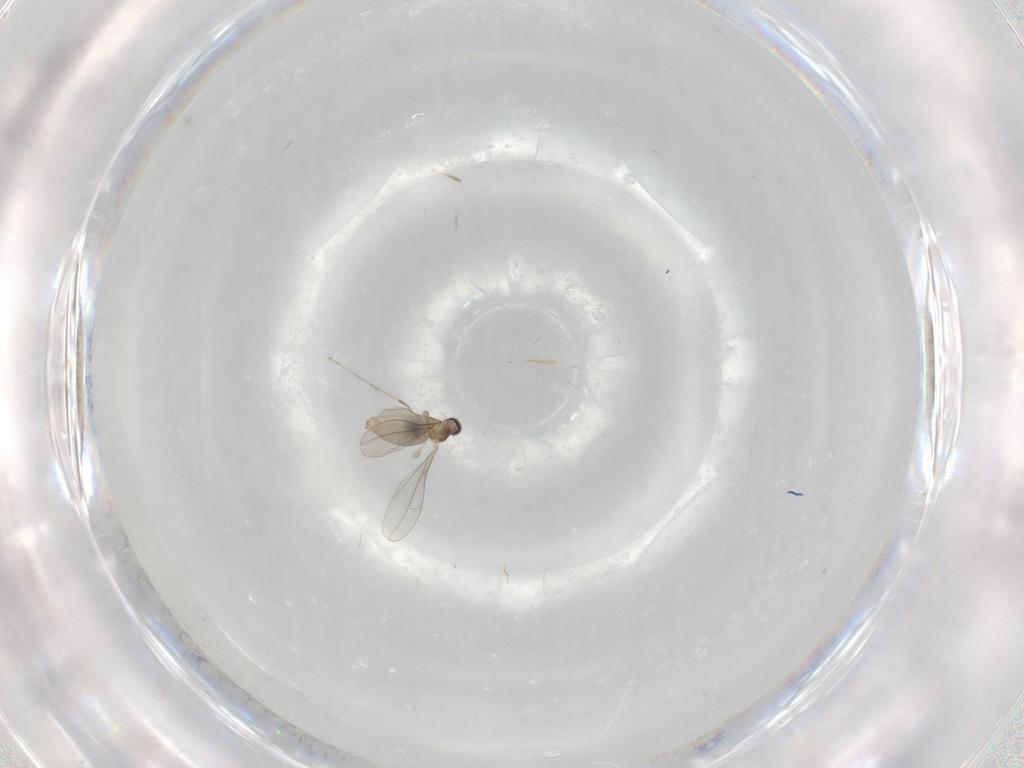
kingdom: Animalia
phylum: Arthropoda
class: Insecta
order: Diptera
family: Cecidomyiidae
